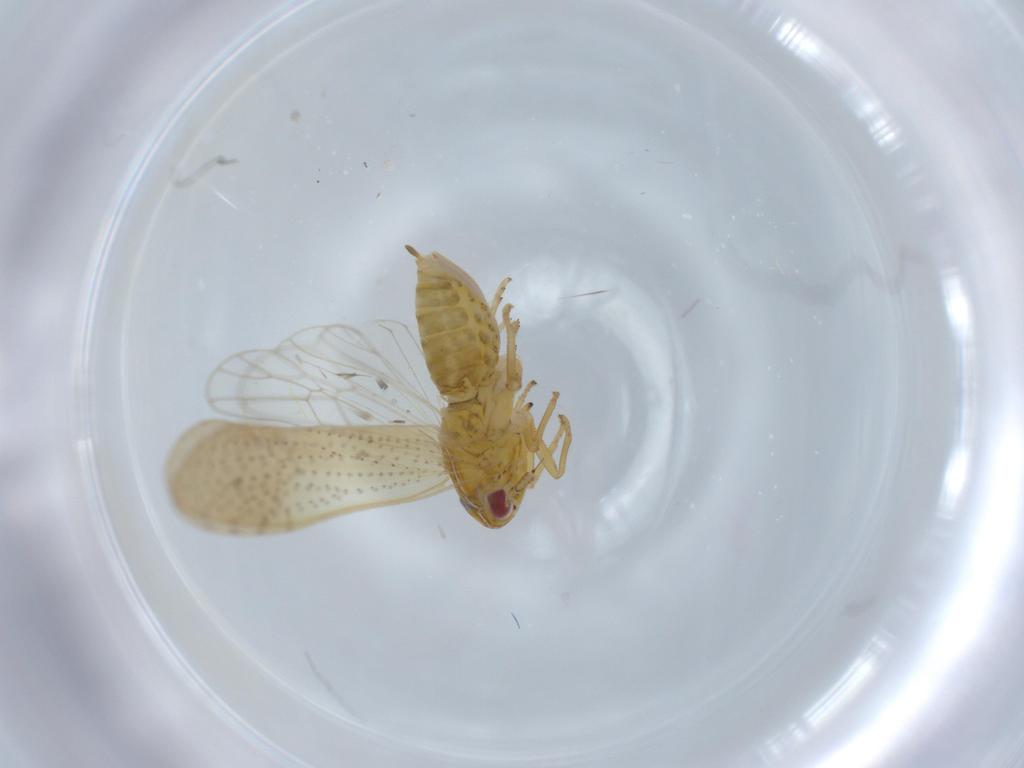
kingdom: Animalia
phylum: Arthropoda
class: Insecta
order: Hemiptera
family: Delphacidae
